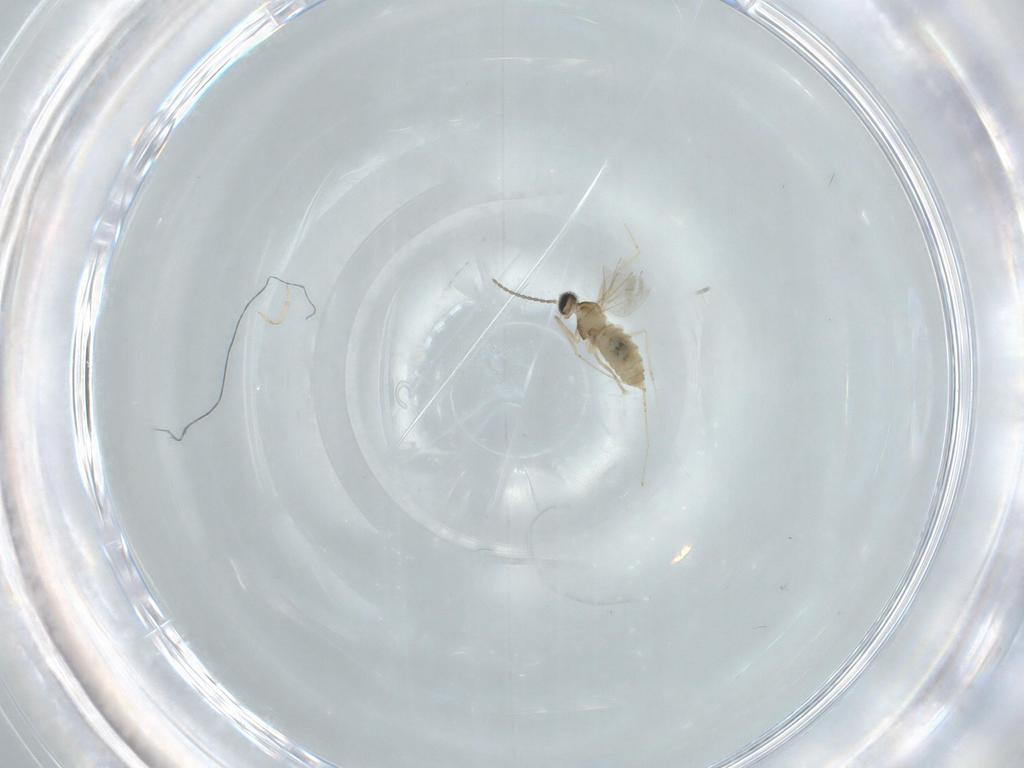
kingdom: Animalia
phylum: Arthropoda
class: Insecta
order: Diptera
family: Cecidomyiidae
